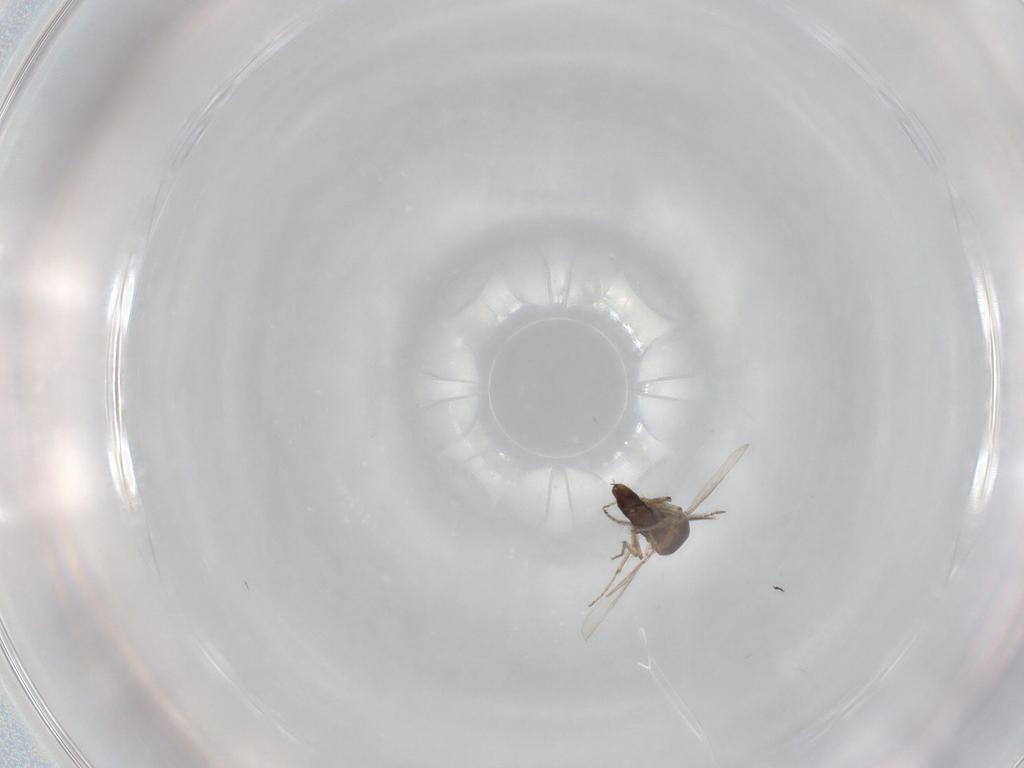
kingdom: Animalia
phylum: Arthropoda
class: Insecta
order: Diptera
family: Ceratopogonidae
